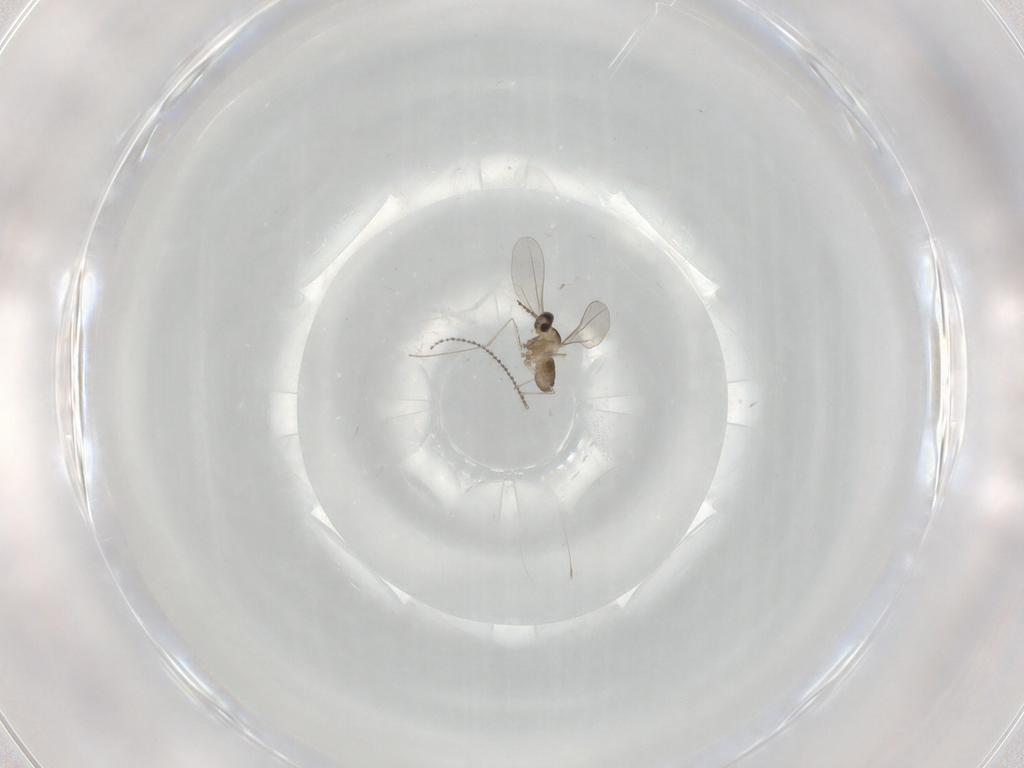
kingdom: Animalia
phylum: Arthropoda
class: Insecta
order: Diptera
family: Cecidomyiidae
